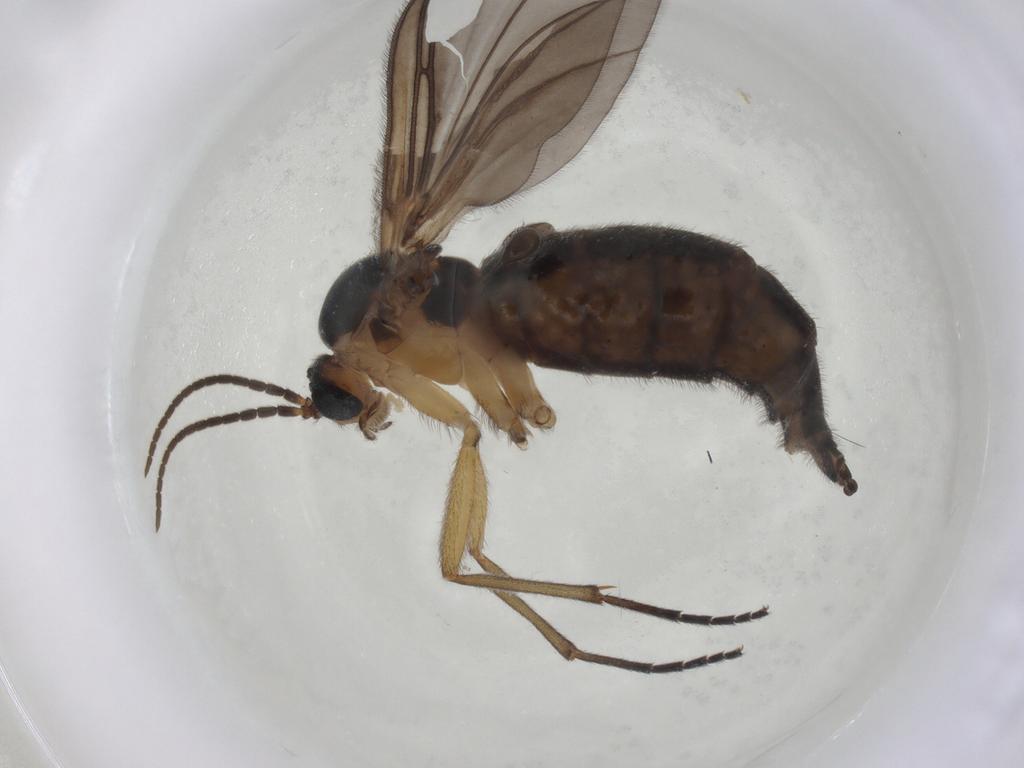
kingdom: Animalia
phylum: Arthropoda
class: Insecta
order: Diptera
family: Sciaridae
